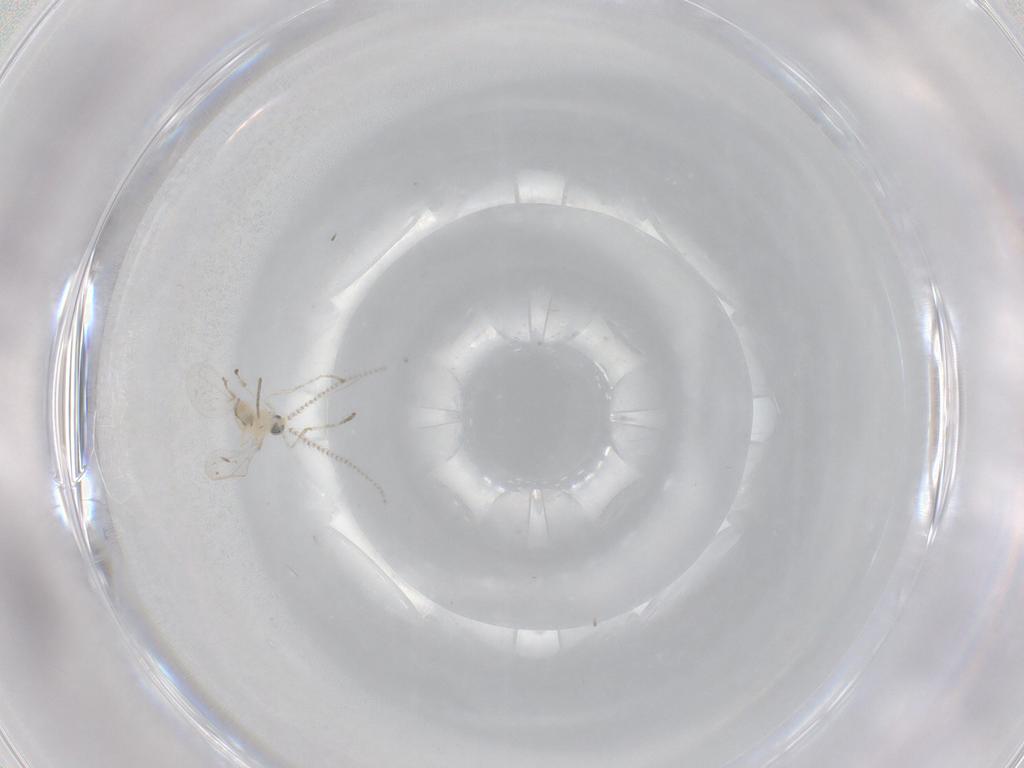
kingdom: Animalia
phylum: Arthropoda
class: Insecta
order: Diptera
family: Cecidomyiidae
